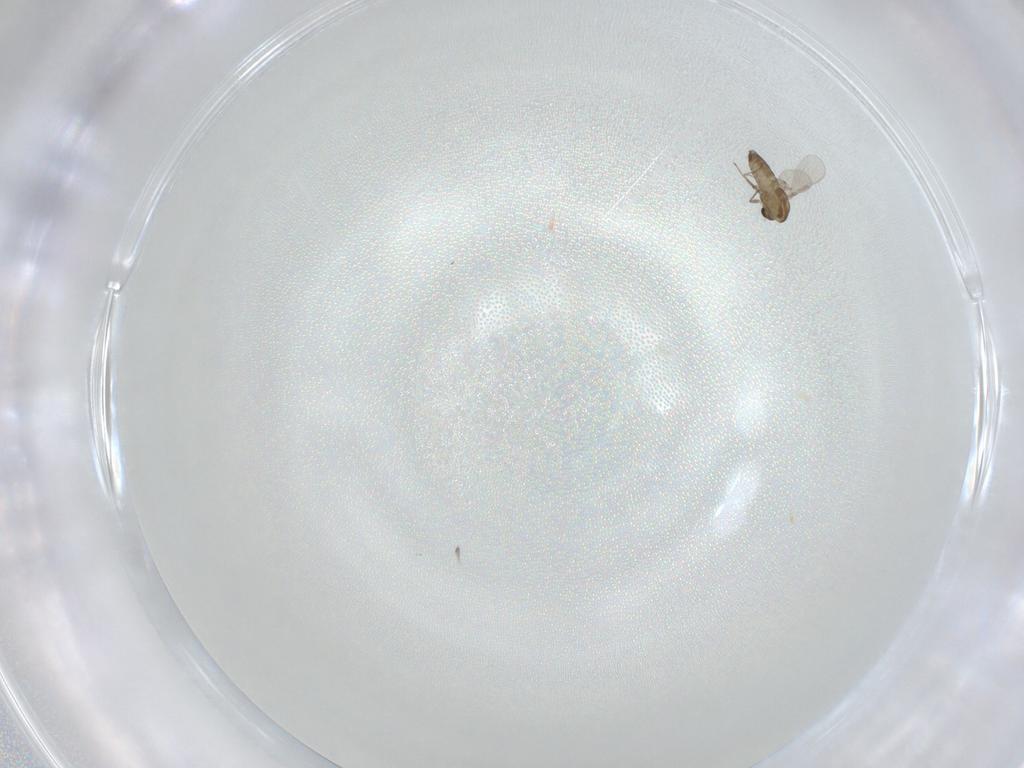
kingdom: Animalia
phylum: Arthropoda
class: Insecta
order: Diptera
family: Chironomidae
